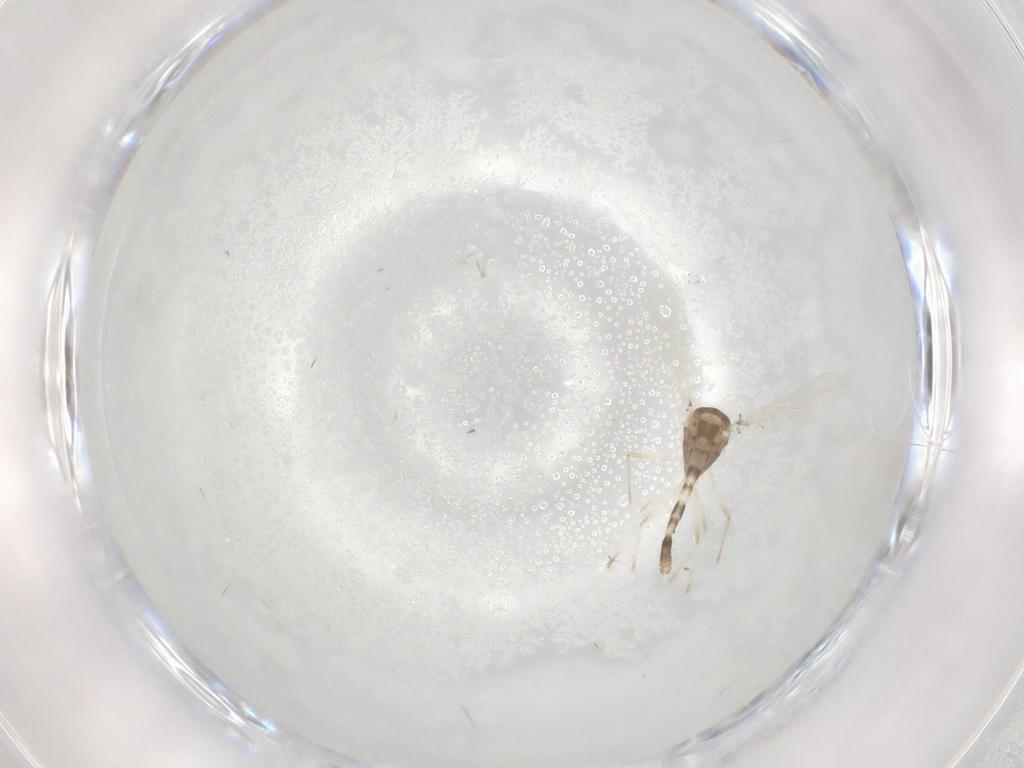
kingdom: Animalia
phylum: Arthropoda
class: Insecta
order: Diptera
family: Chironomidae
